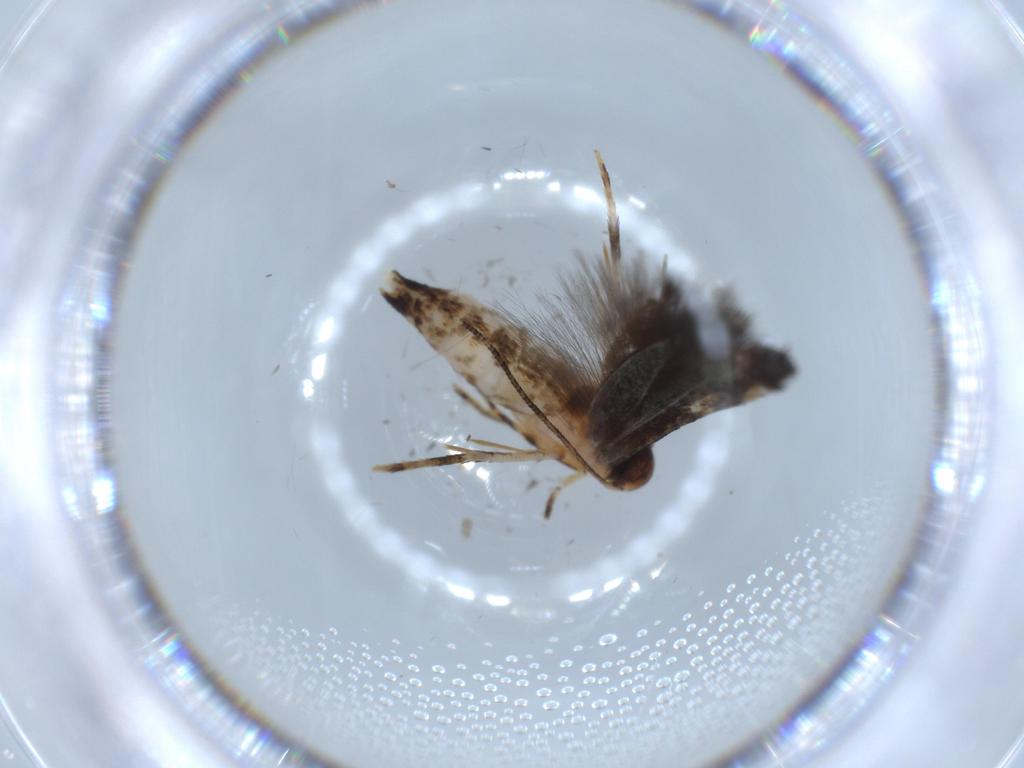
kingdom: Animalia
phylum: Arthropoda
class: Insecta
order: Lepidoptera
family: Momphidae
